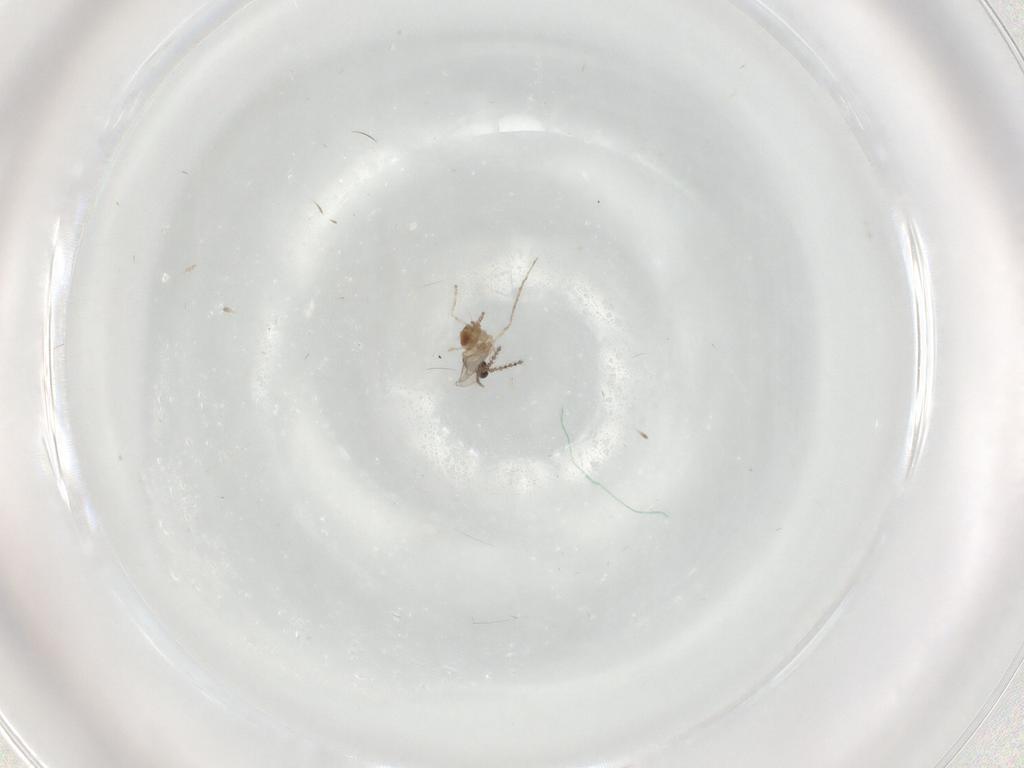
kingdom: Animalia
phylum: Arthropoda
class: Insecta
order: Diptera
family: Chironomidae
